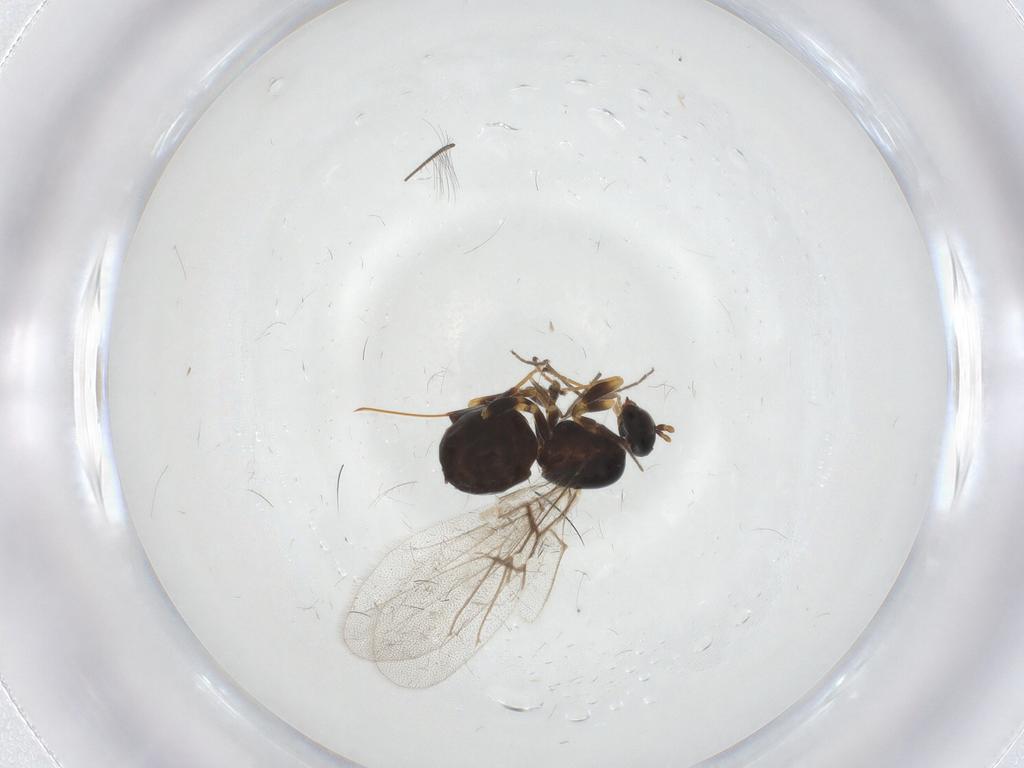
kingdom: Animalia
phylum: Arthropoda
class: Insecta
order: Hymenoptera
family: Cynipidae
